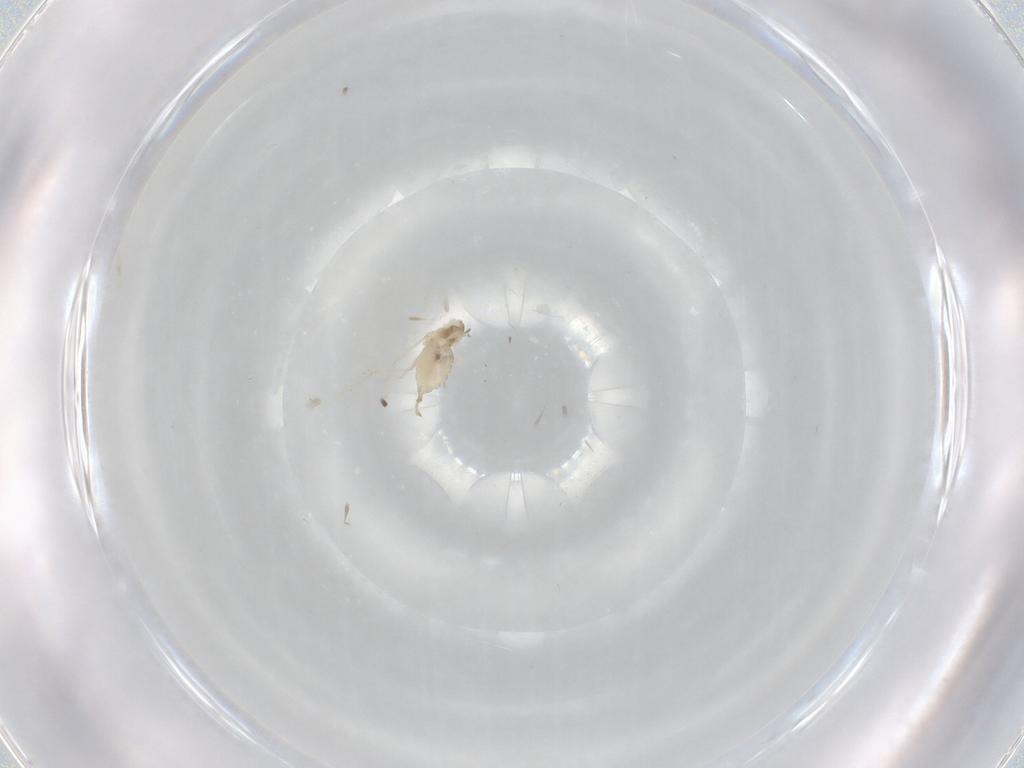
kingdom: Animalia
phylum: Arthropoda
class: Insecta
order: Diptera
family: Cecidomyiidae
